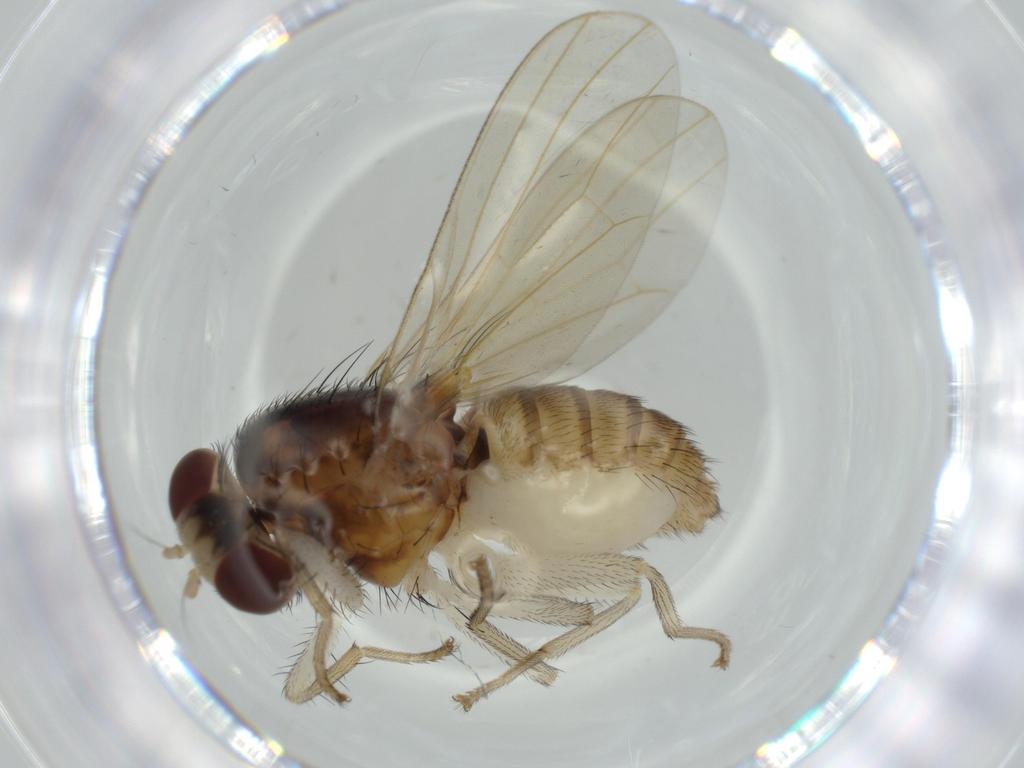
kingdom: Animalia
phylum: Arthropoda
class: Insecta
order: Diptera
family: Lauxaniidae
